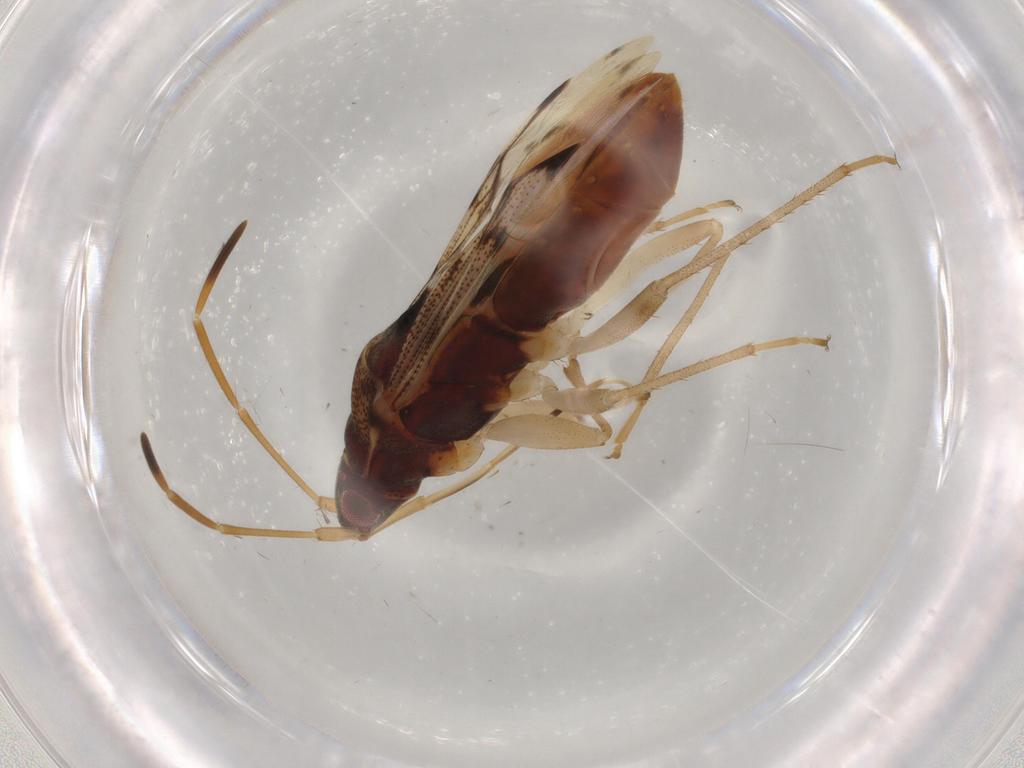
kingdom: Animalia
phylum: Arthropoda
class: Insecta
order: Hemiptera
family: Rhyparochromidae
